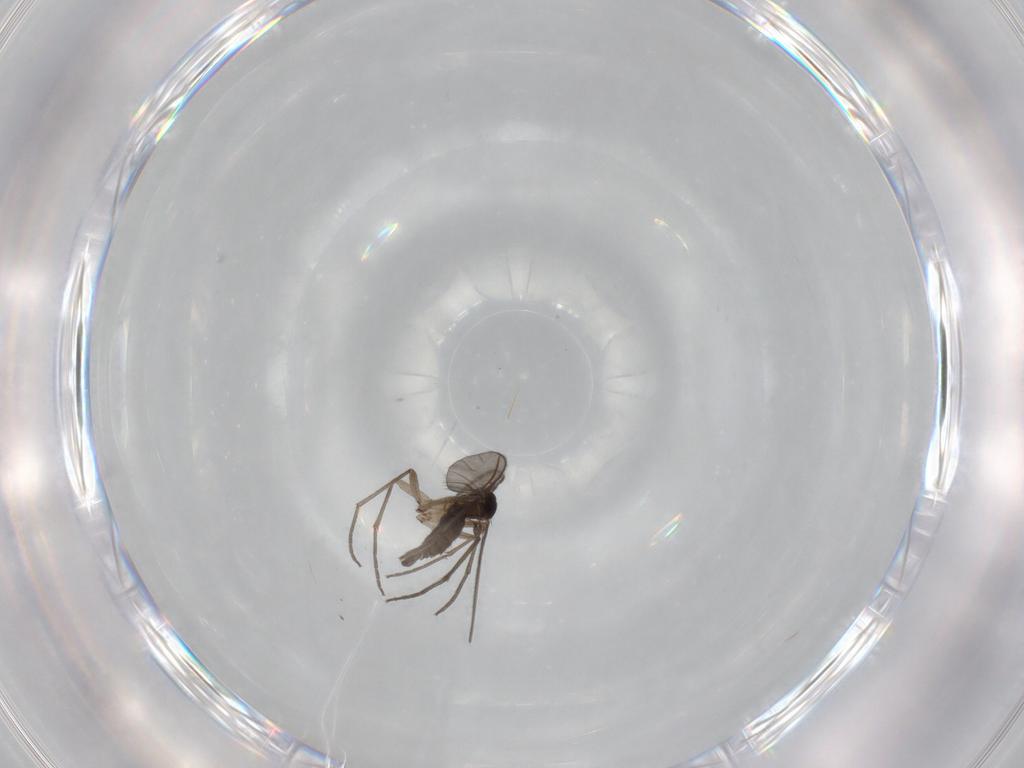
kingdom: Animalia
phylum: Arthropoda
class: Insecta
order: Diptera
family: Sciaridae
